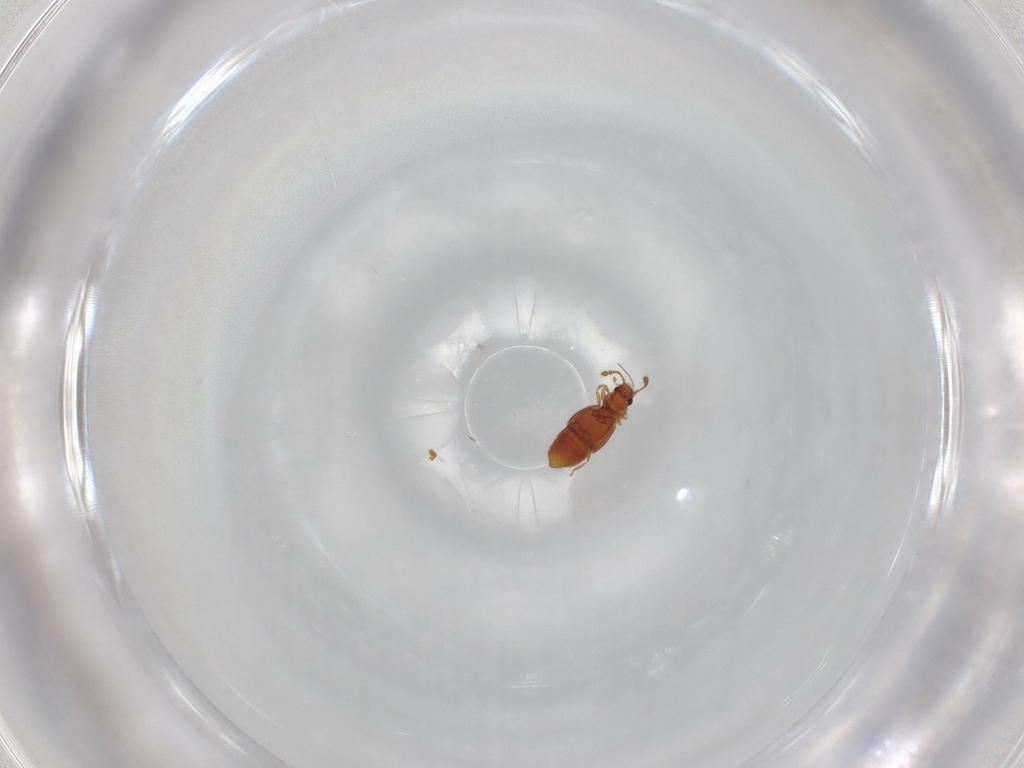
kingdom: Animalia
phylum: Arthropoda
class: Insecta
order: Coleoptera
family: Staphylinidae
